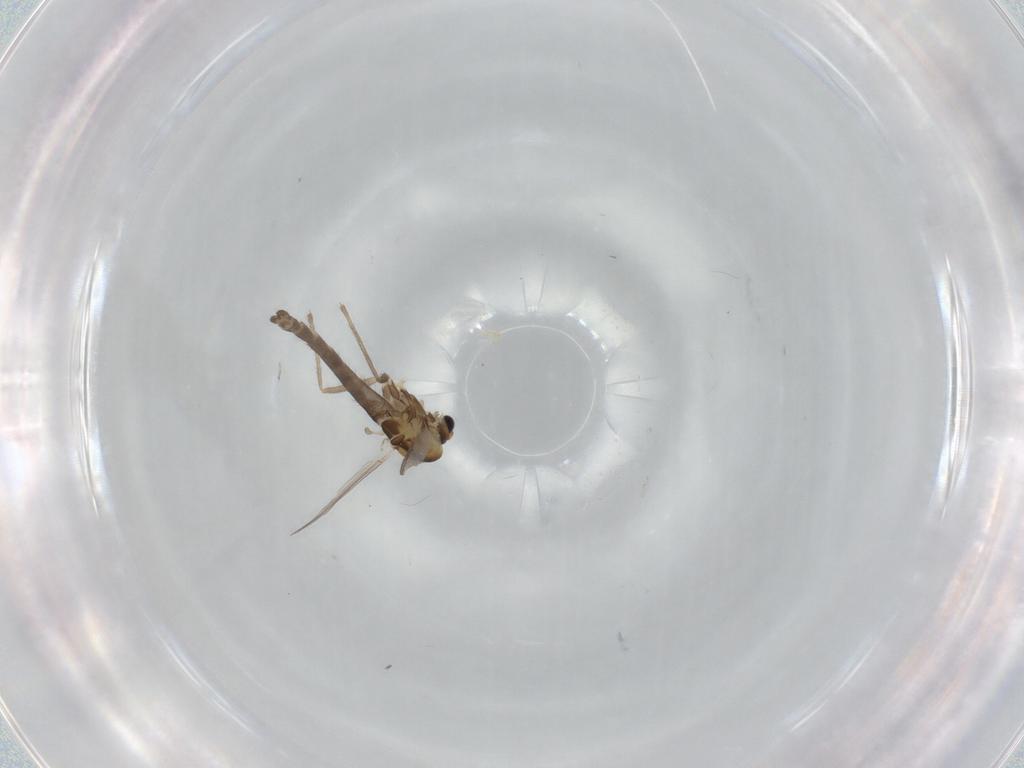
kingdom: Animalia
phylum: Arthropoda
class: Insecta
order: Diptera
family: Chironomidae
